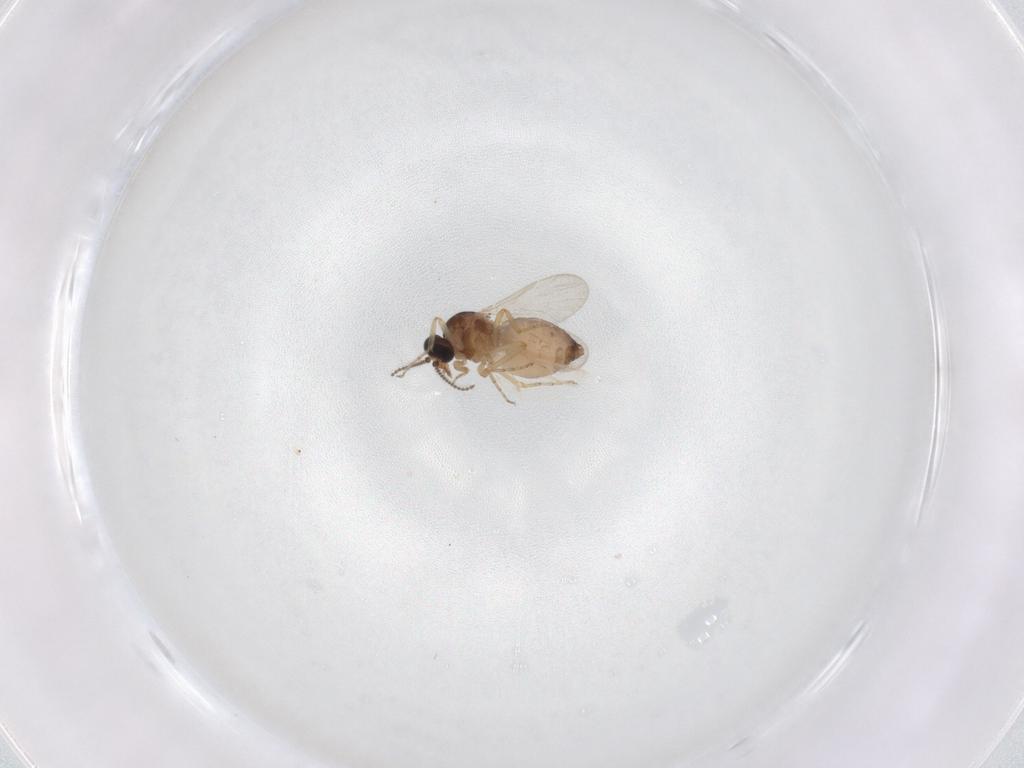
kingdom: Animalia
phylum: Arthropoda
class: Insecta
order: Diptera
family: Ceratopogonidae
